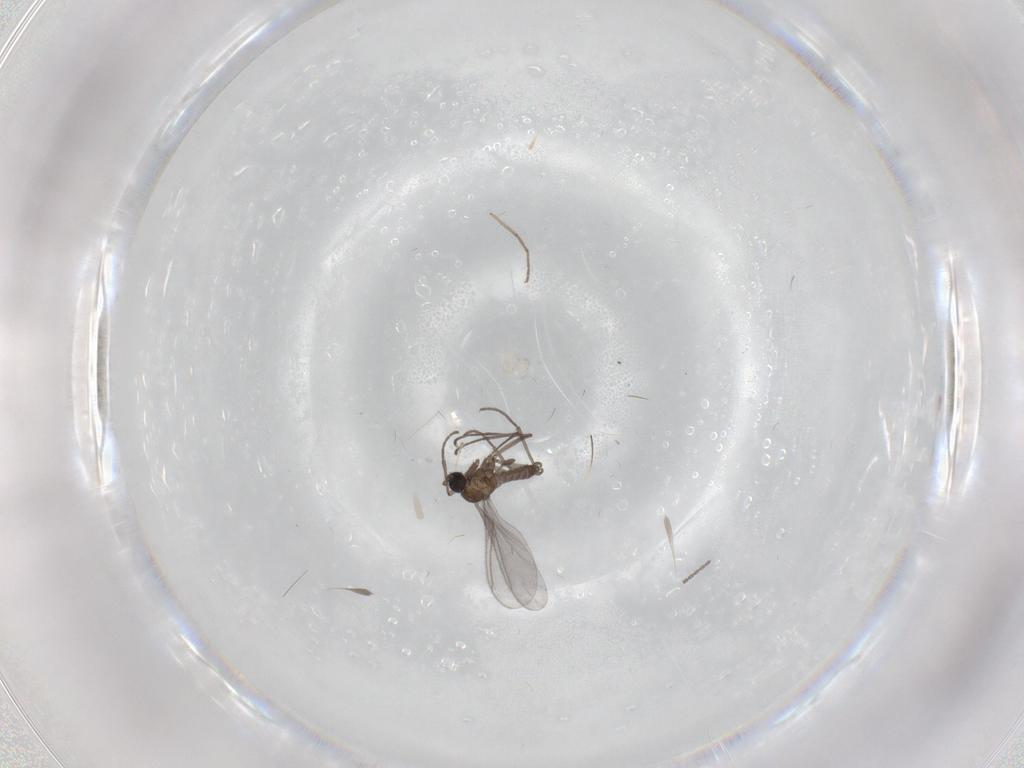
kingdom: Animalia
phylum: Arthropoda
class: Insecta
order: Diptera
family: Sciaridae
